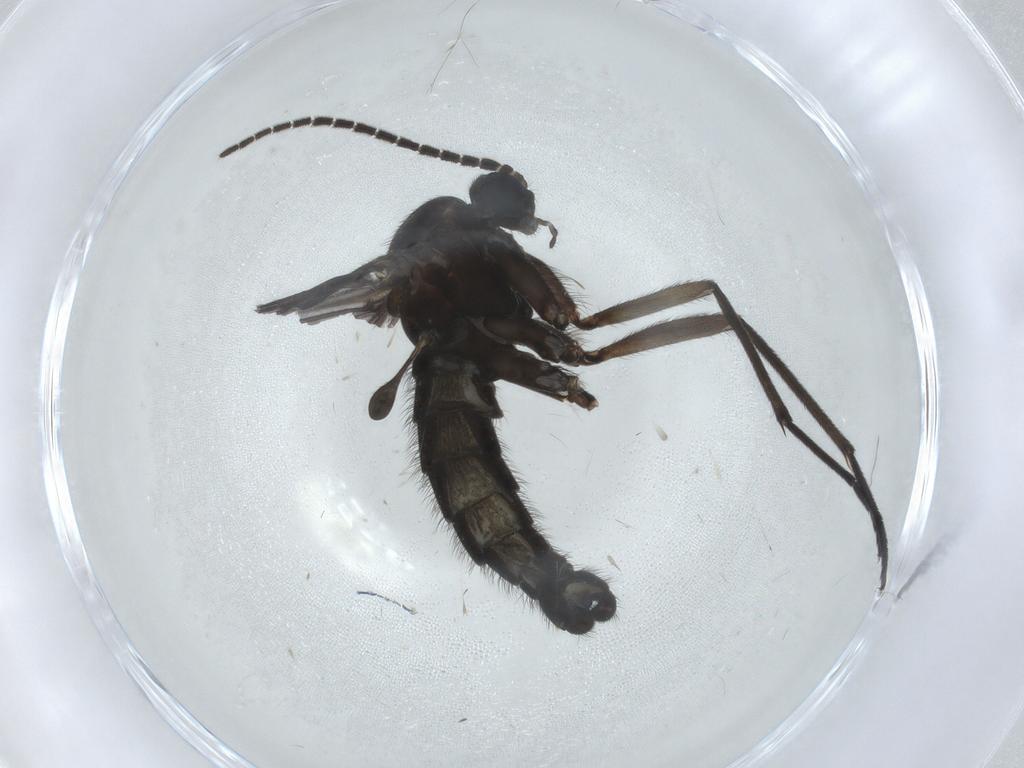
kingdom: Animalia
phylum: Arthropoda
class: Insecta
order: Diptera
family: Sciaridae
